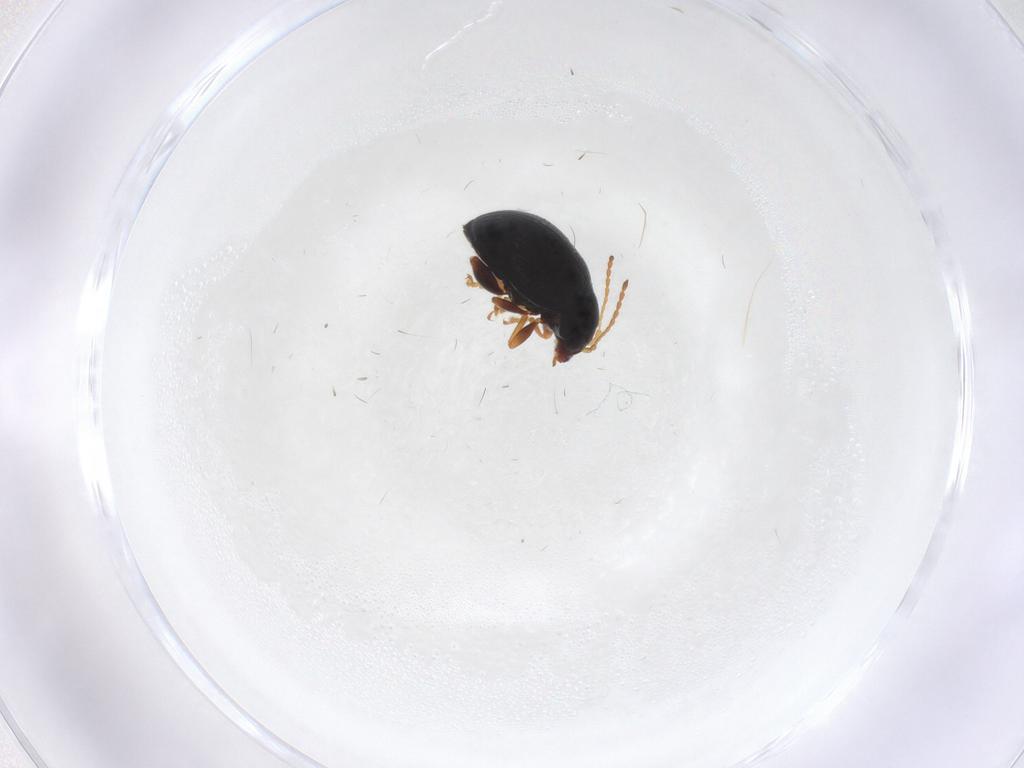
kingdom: Animalia
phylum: Arthropoda
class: Insecta
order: Coleoptera
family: Chrysomelidae
